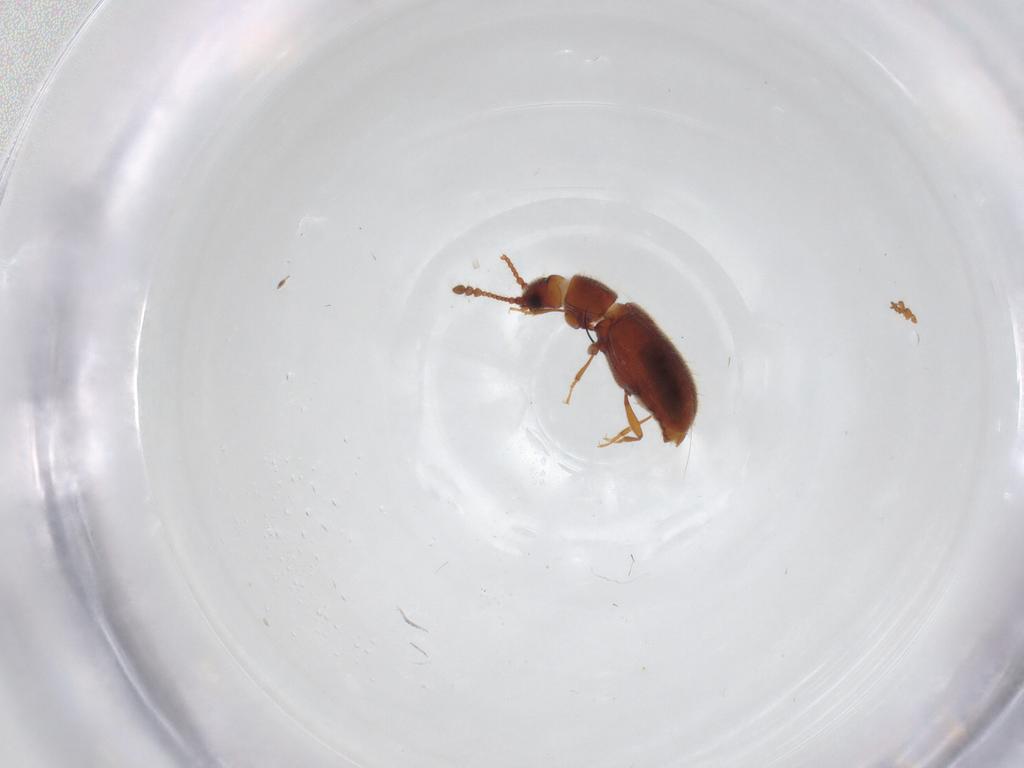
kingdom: Animalia
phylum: Arthropoda
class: Insecta
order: Coleoptera
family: Cryptophagidae
